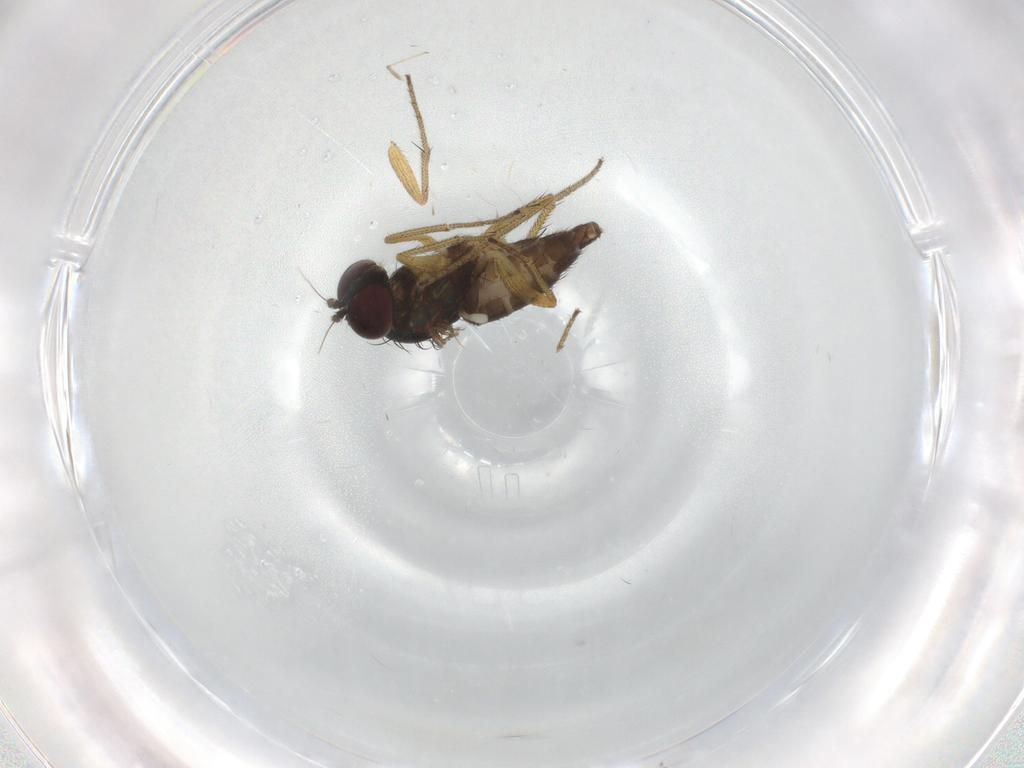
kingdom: Animalia
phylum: Arthropoda
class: Insecta
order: Diptera
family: Dolichopodidae
